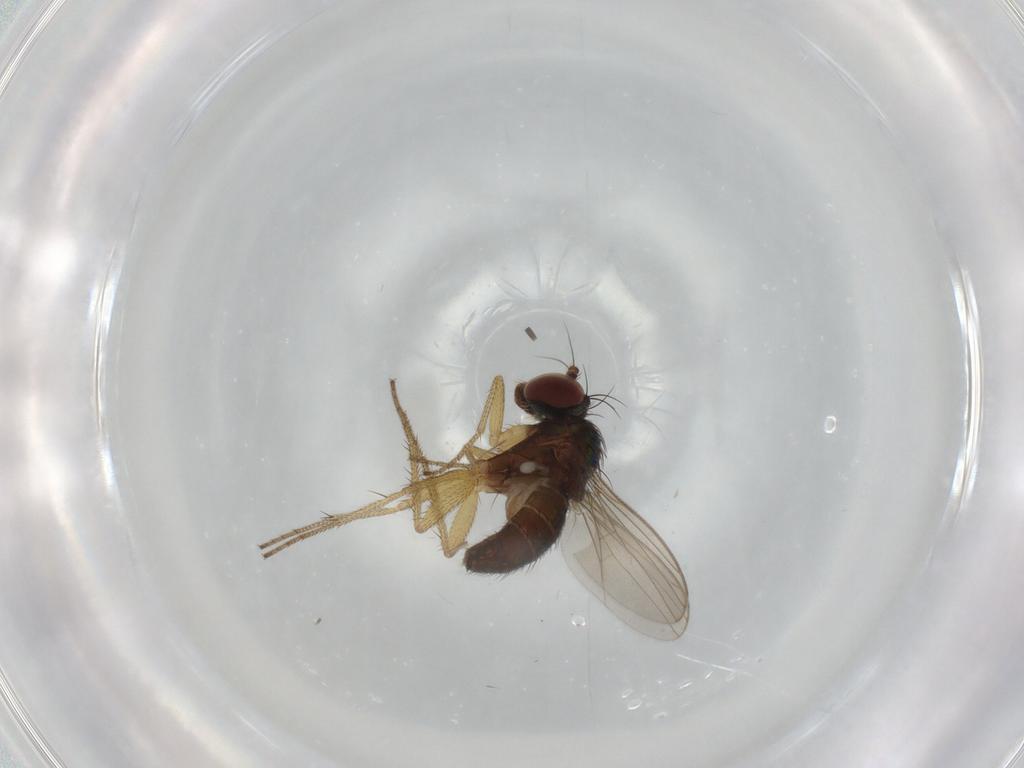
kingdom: Animalia
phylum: Arthropoda
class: Insecta
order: Diptera
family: Dolichopodidae
